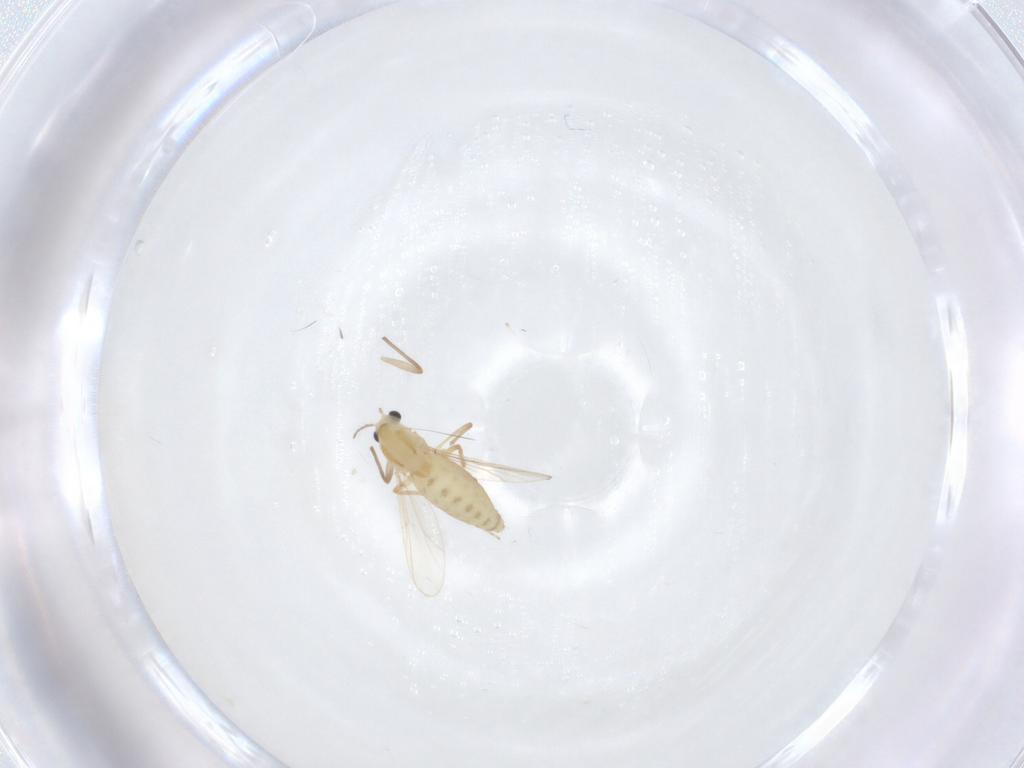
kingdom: Animalia
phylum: Arthropoda
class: Insecta
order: Diptera
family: Chironomidae
